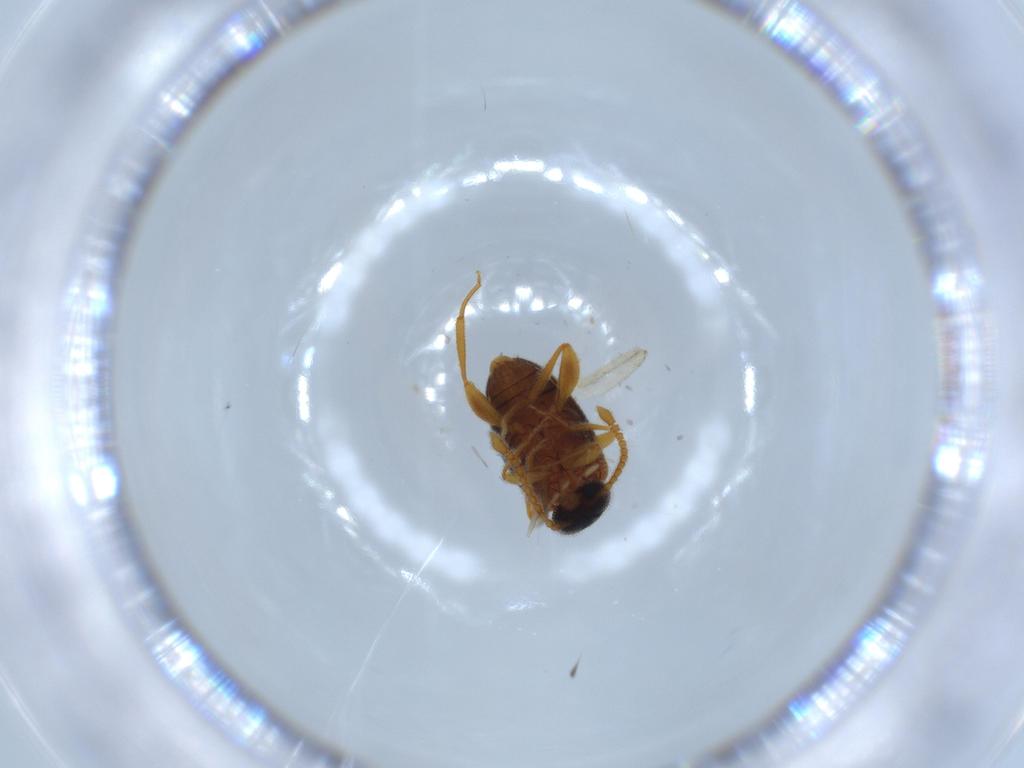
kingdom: Animalia
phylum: Arthropoda
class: Insecta
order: Coleoptera
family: Aderidae
